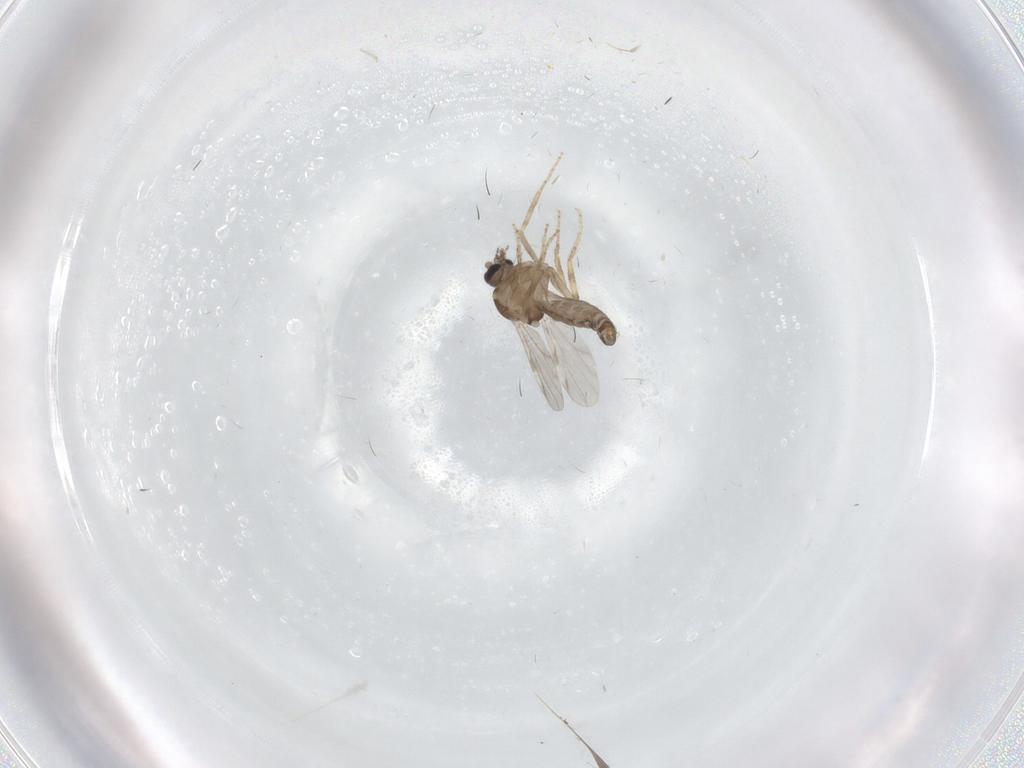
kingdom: Animalia
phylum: Arthropoda
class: Insecta
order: Diptera
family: Ceratopogonidae
